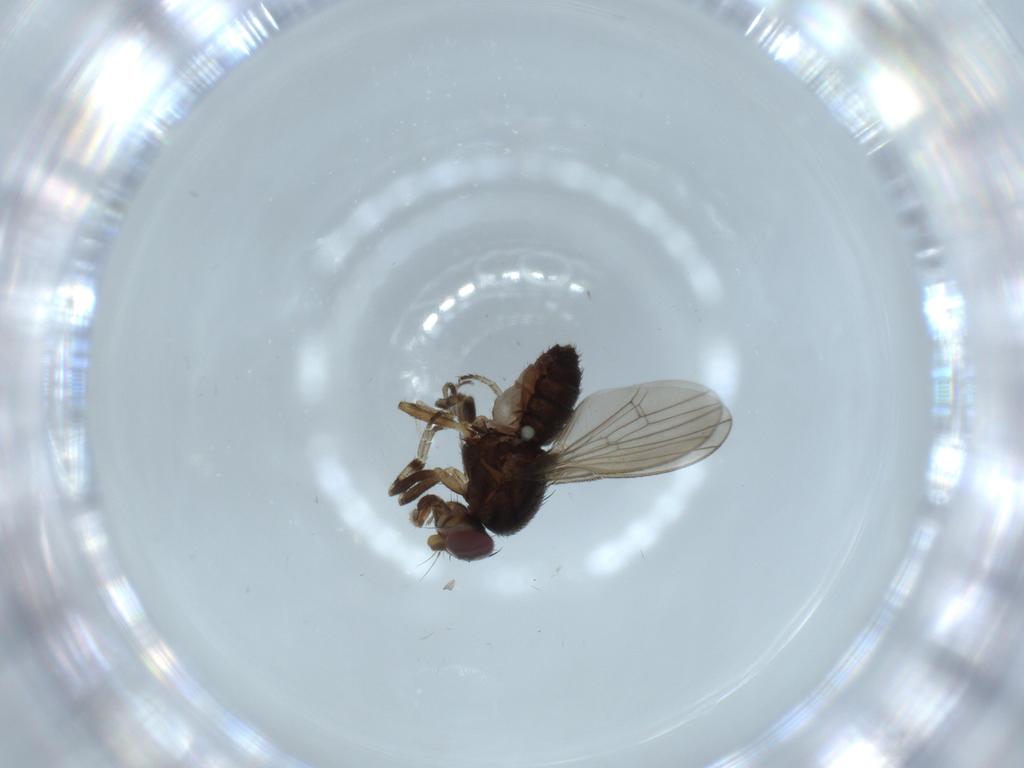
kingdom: Animalia
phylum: Arthropoda
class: Insecta
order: Diptera
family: Heleomyzidae
